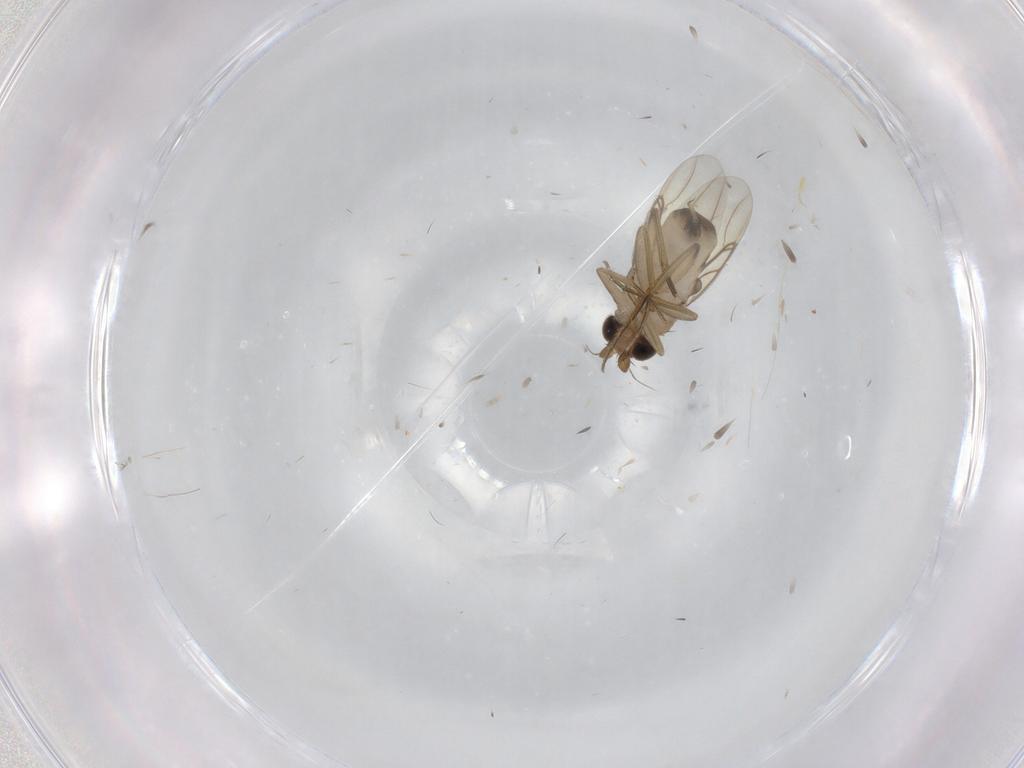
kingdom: Animalia
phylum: Arthropoda
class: Insecta
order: Diptera
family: Phoridae
